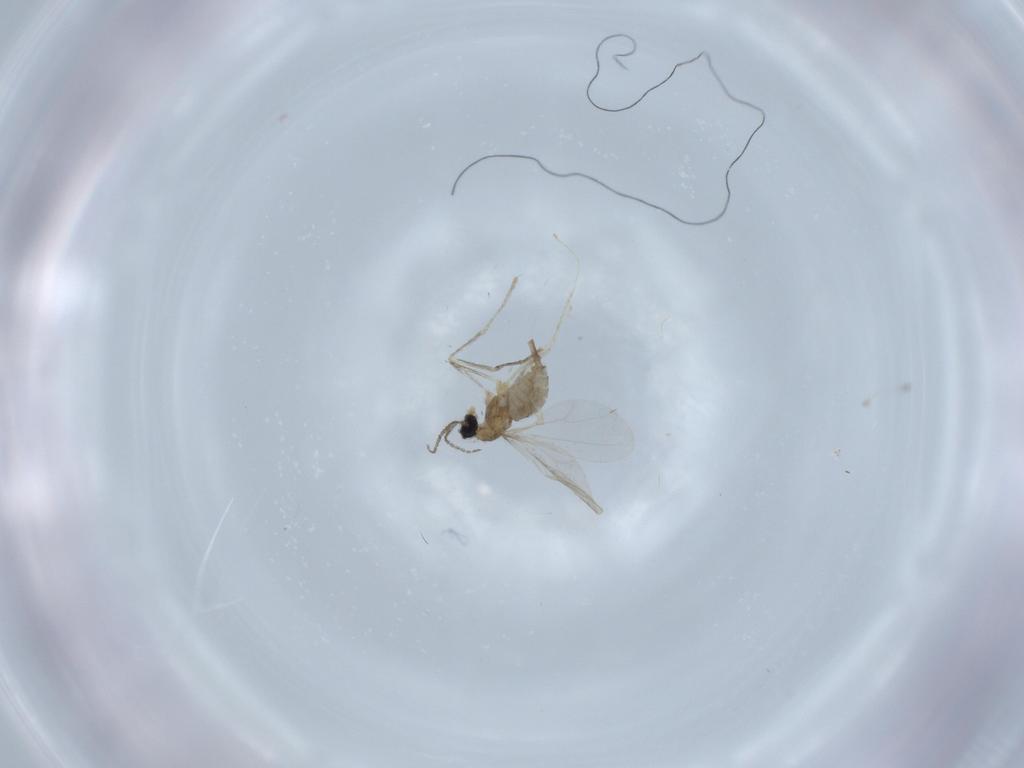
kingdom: Animalia
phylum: Arthropoda
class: Insecta
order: Diptera
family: Cecidomyiidae
